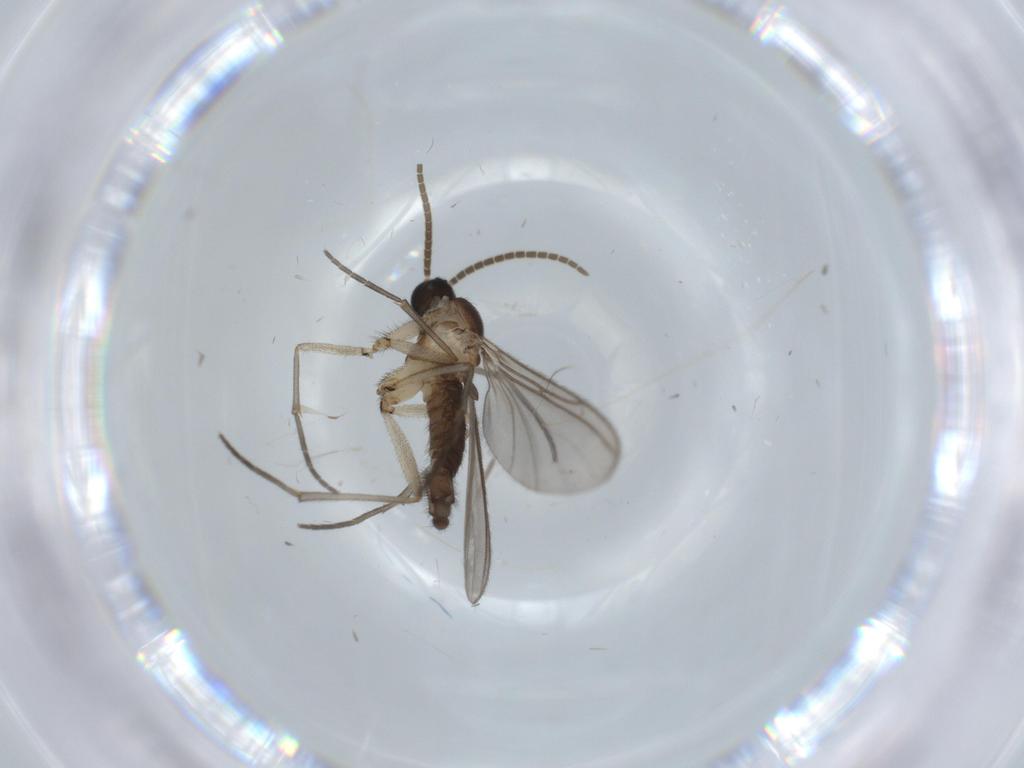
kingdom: Animalia
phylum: Arthropoda
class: Insecta
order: Diptera
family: Sciaridae
